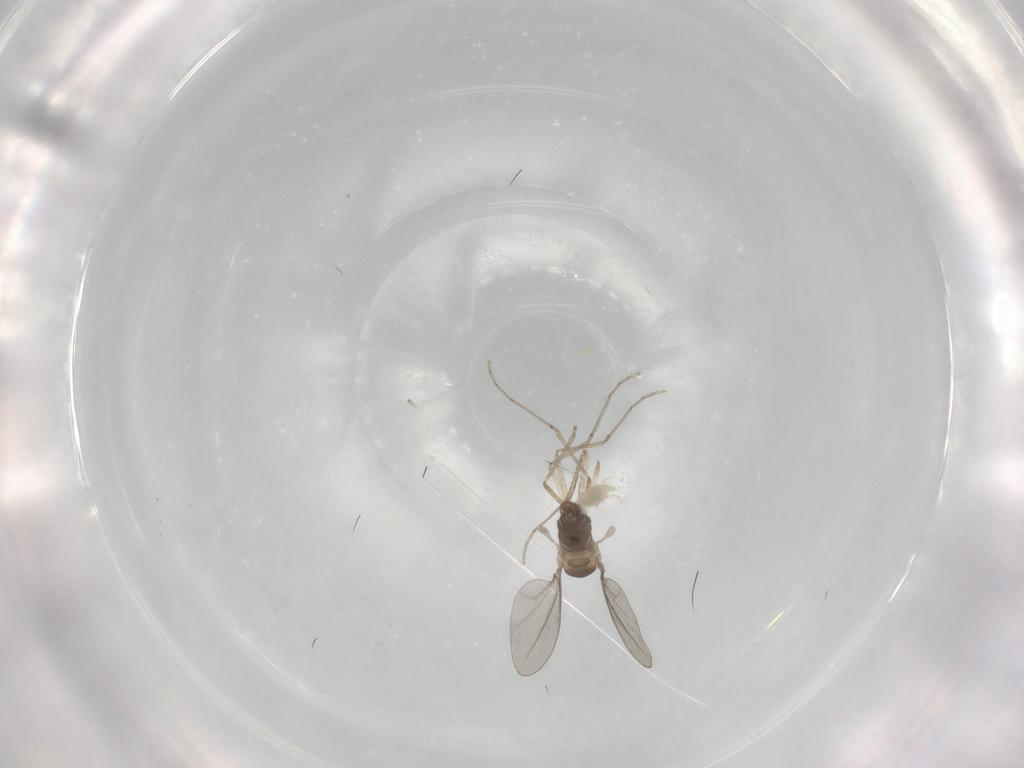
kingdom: Animalia
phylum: Arthropoda
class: Insecta
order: Diptera
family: Cecidomyiidae
